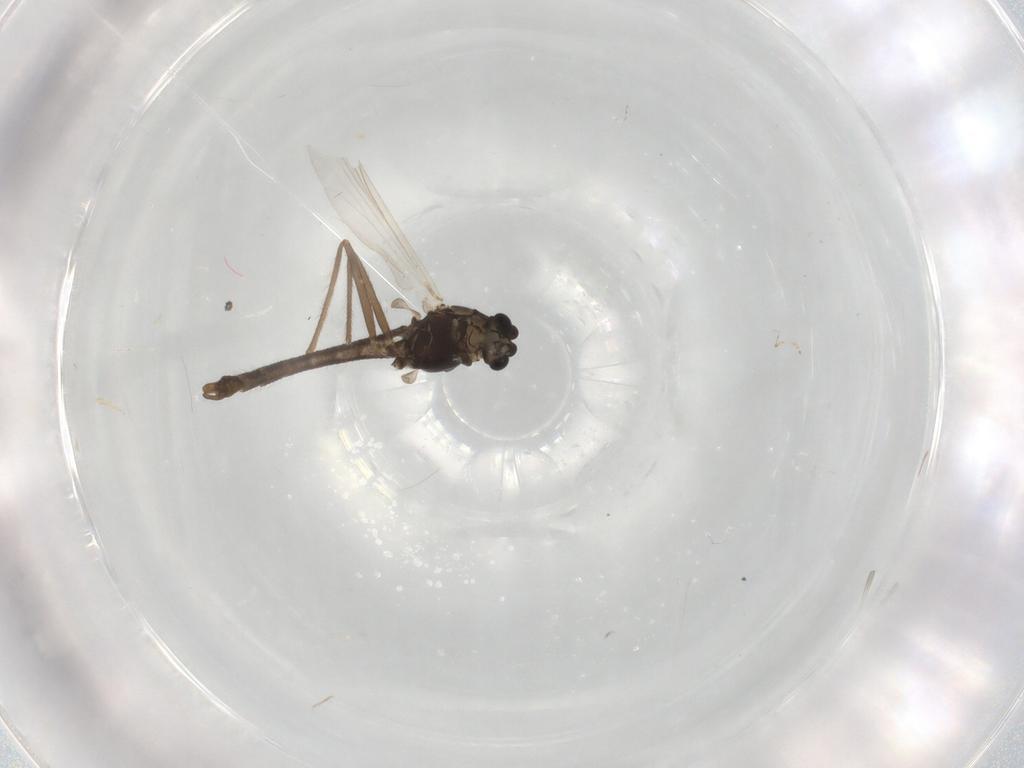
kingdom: Animalia
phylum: Arthropoda
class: Insecta
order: Diptera
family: Chironomidae
